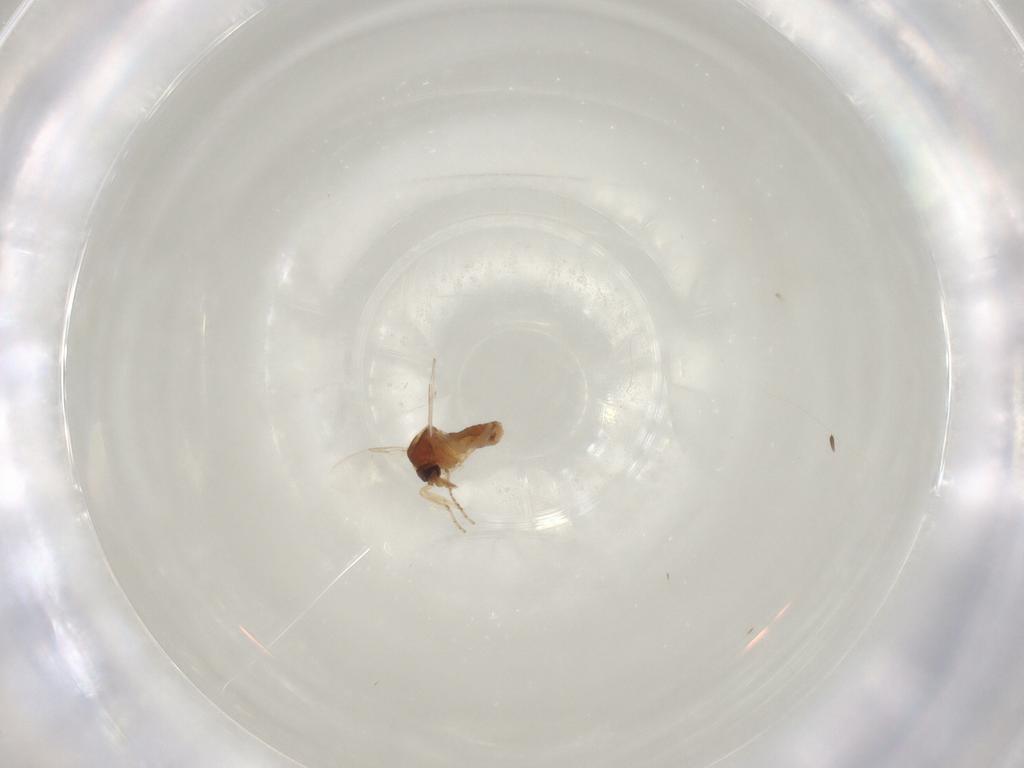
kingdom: Animalia
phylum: Arthropoda
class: Insecta
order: Diptera
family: Ceratopogonidae
